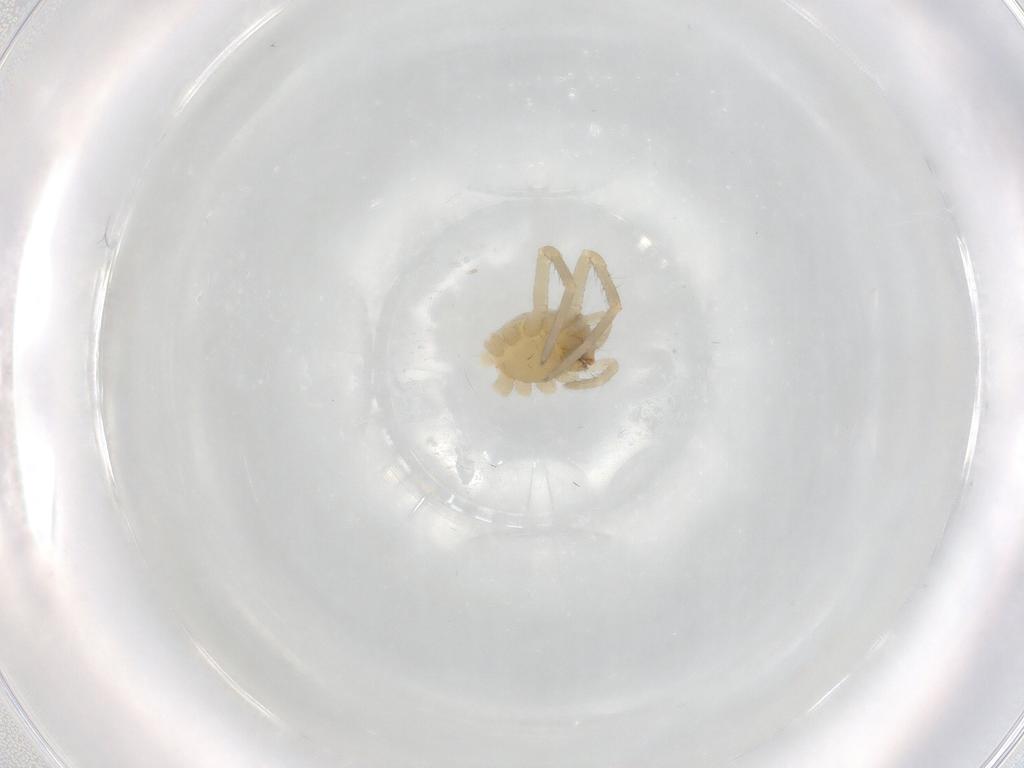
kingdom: Animalia
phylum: Arthropoda
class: Arachnida
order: Araneae
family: Cheiracanthiidae
